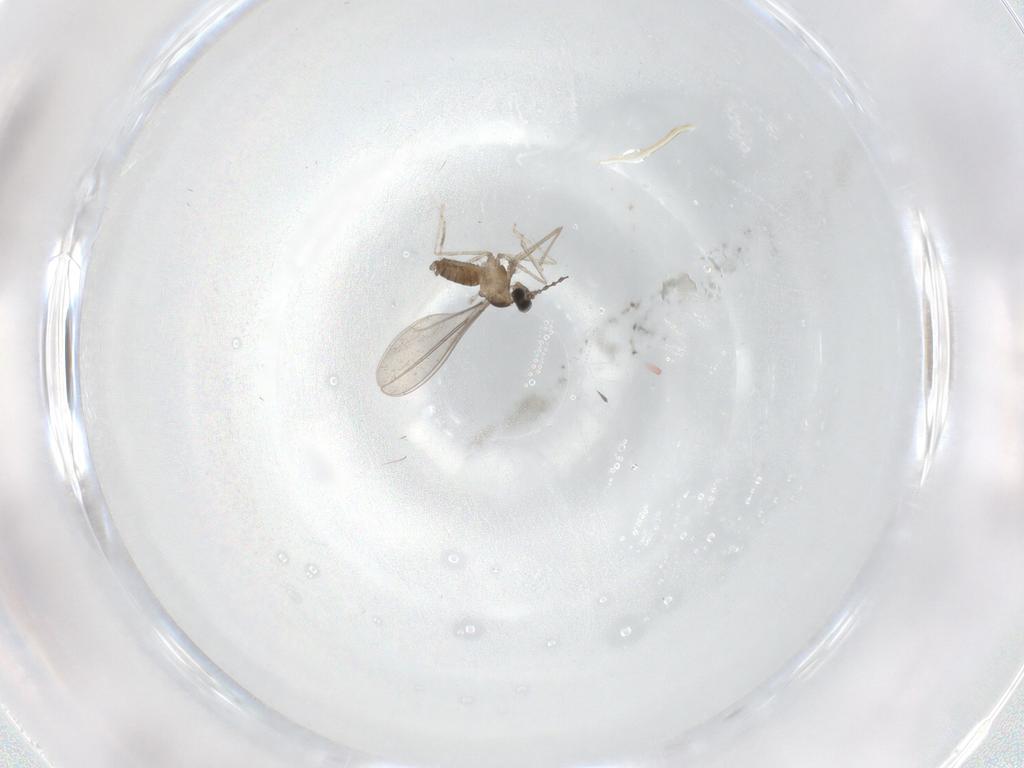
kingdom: Animalia
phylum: Arthropoda
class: Insecta
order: Diptera
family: Cecidomyiidae
